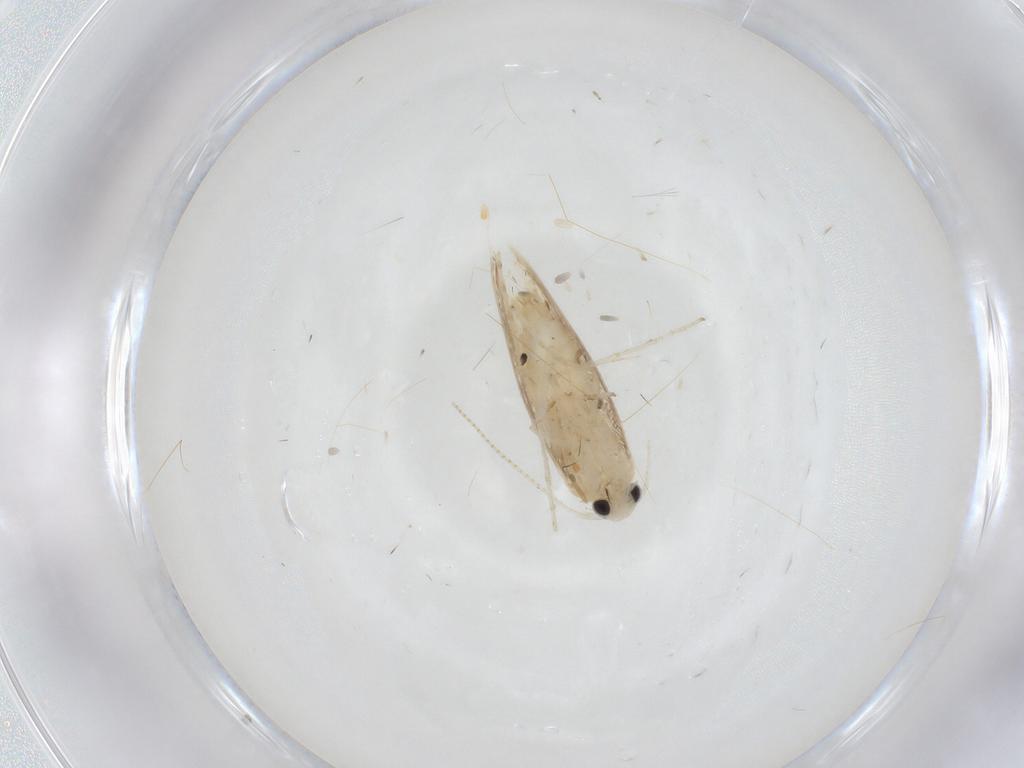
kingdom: Animalia
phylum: Arthropoda
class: Insecta
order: Lepidoptera
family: Gracillariidae
